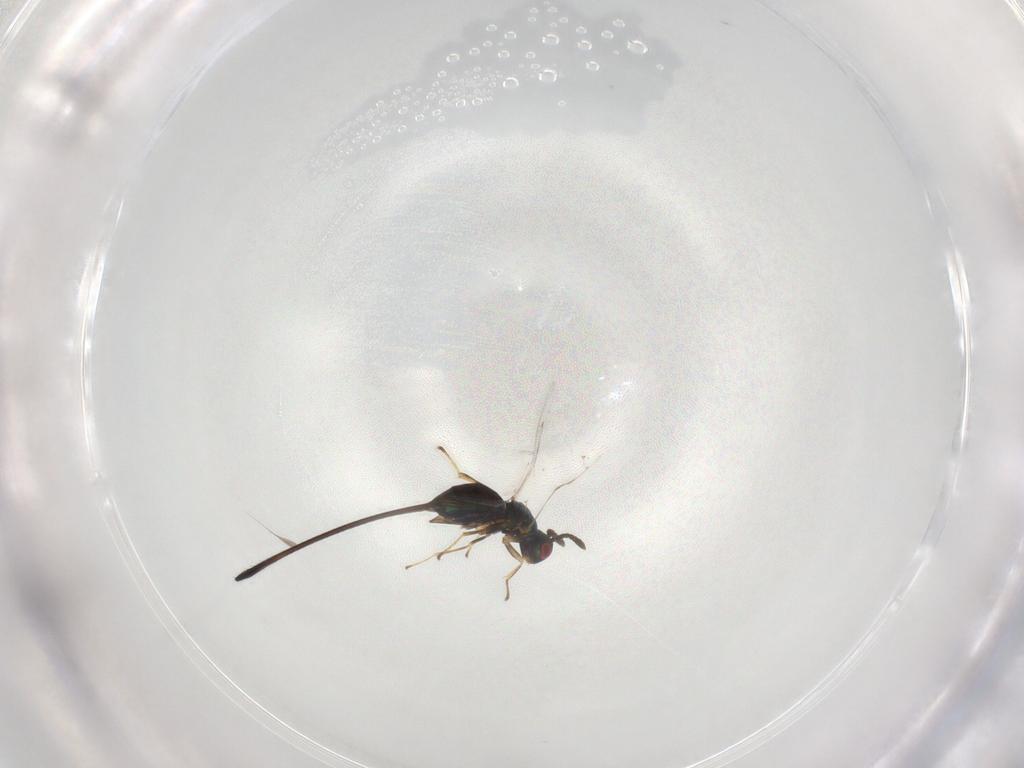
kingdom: Animalia
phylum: Arthropoda
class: Insecta
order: Hymenoptera
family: Pteromalidae
